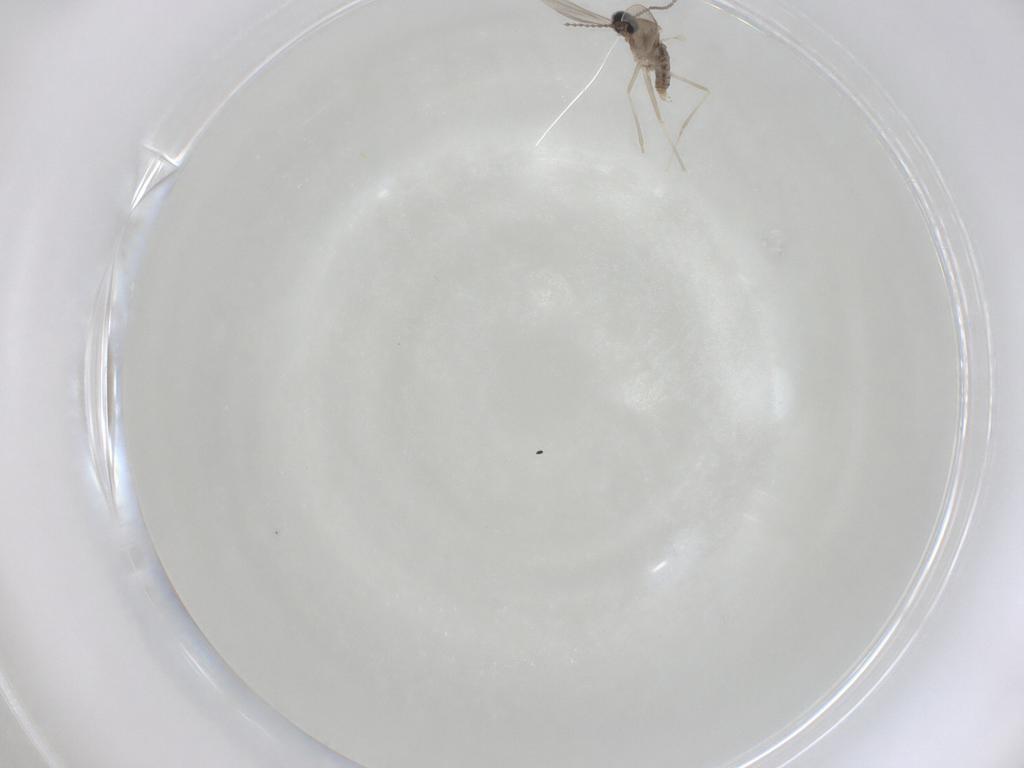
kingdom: Animalia
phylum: Arthropoda
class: Insecta
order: Diptera
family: Cecidomyiidae
